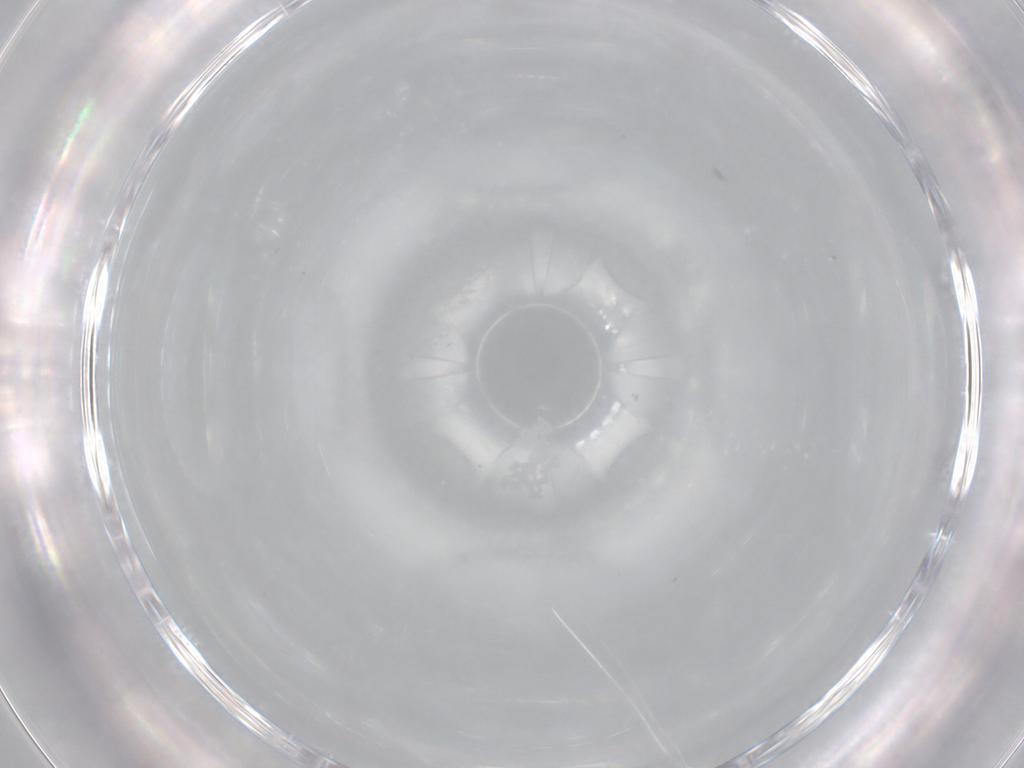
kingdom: Animalia
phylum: Arthropoda
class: Insecta
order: Diptera
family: Syrphidae
